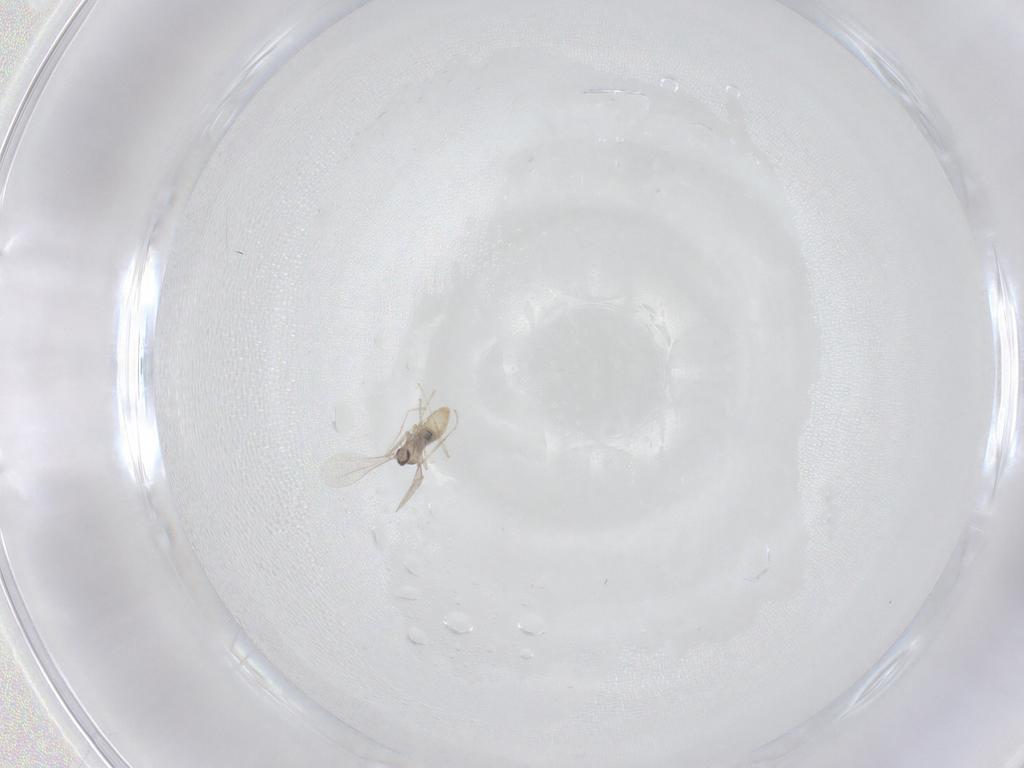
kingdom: Animalia
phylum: Arthropoda
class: Insecta
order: Diptera
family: Cecidomyiidae
